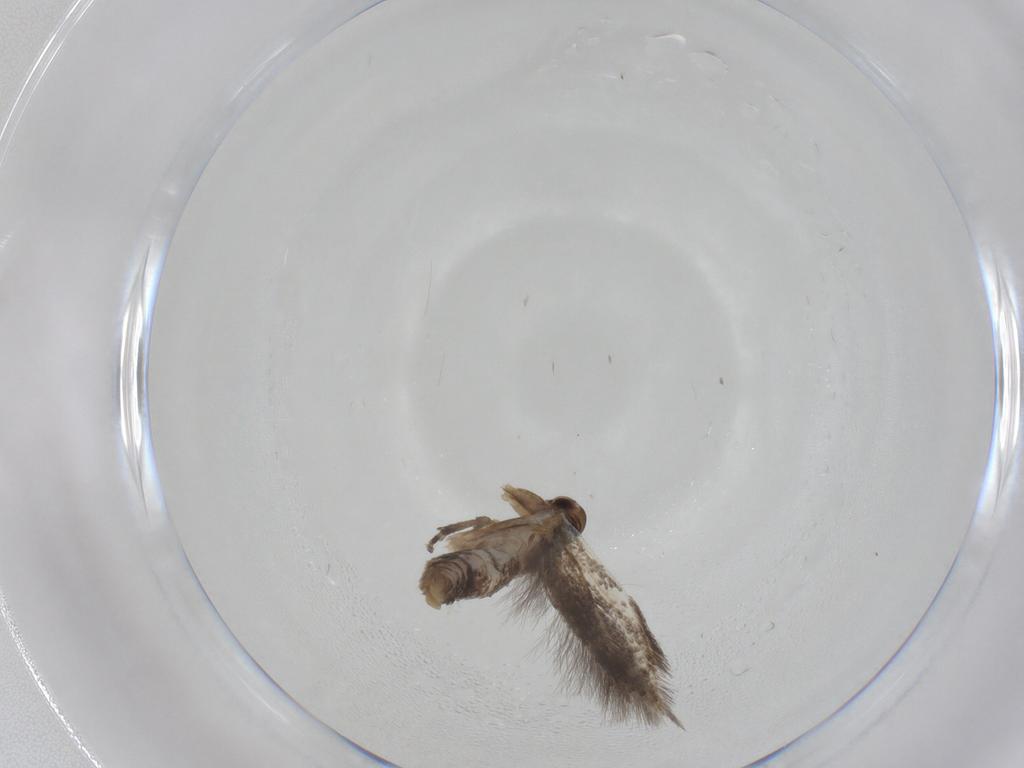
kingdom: Animalia
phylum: Arthropoda
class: Insecta
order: Lepidoptera
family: Elachistidae
